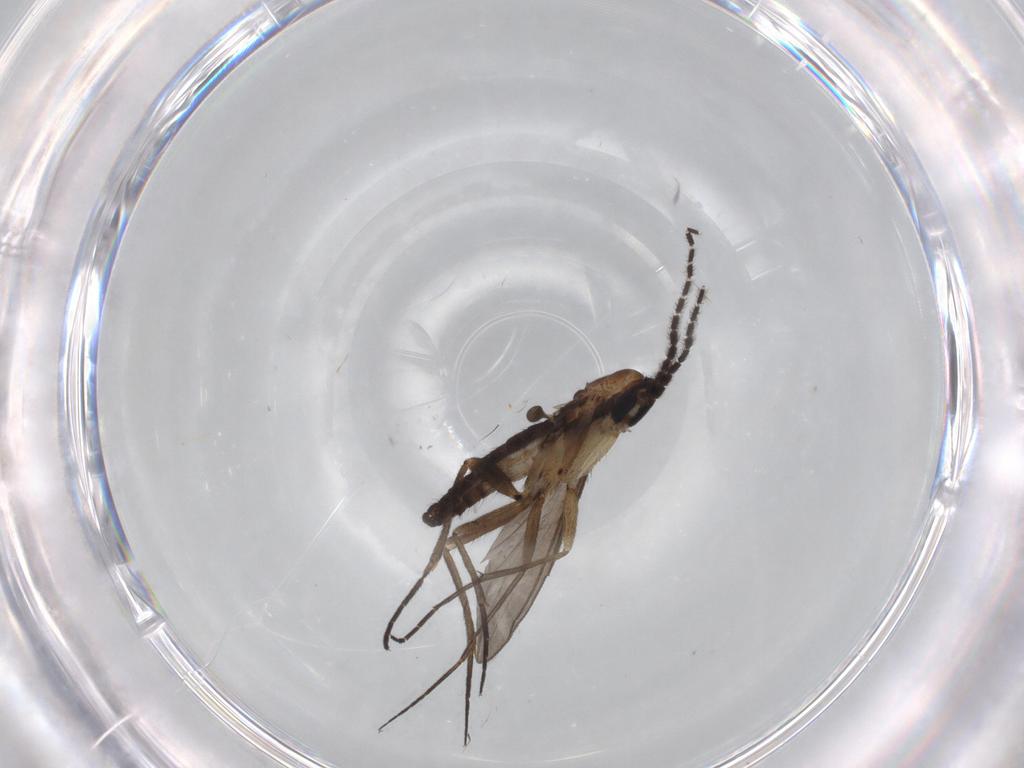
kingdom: Animalia
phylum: Arthropoda
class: Insecta
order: Diptera
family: Sciaridae
